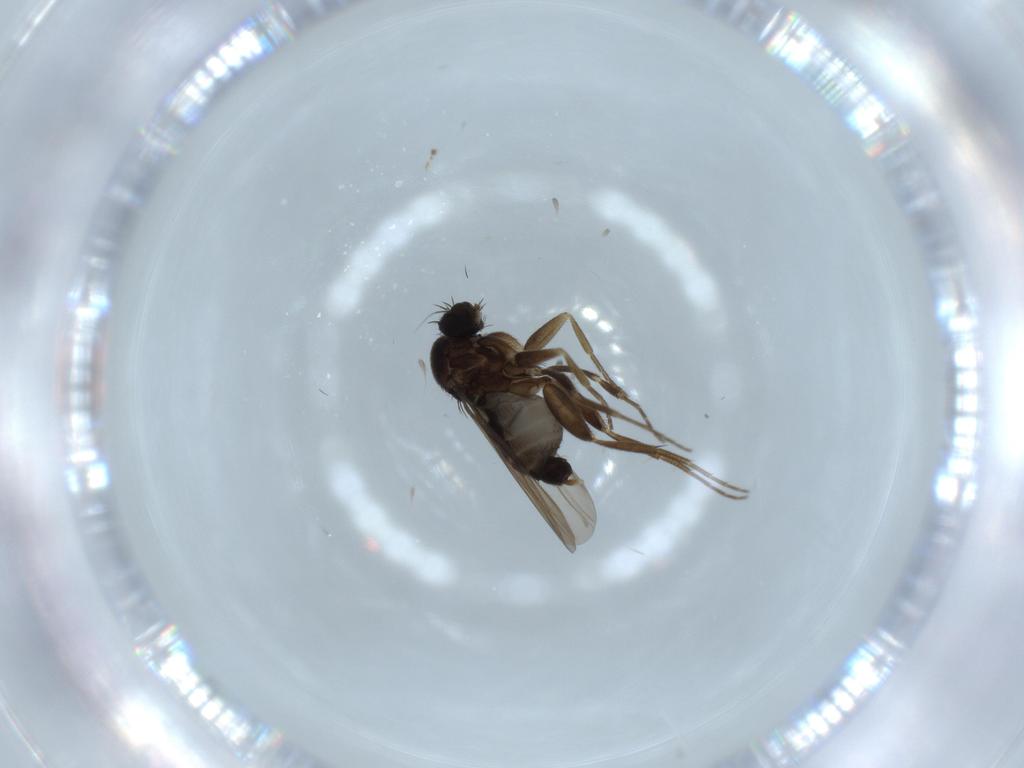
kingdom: Animalia
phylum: Arthropoda
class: Insecta
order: Diptera
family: Phoridae
